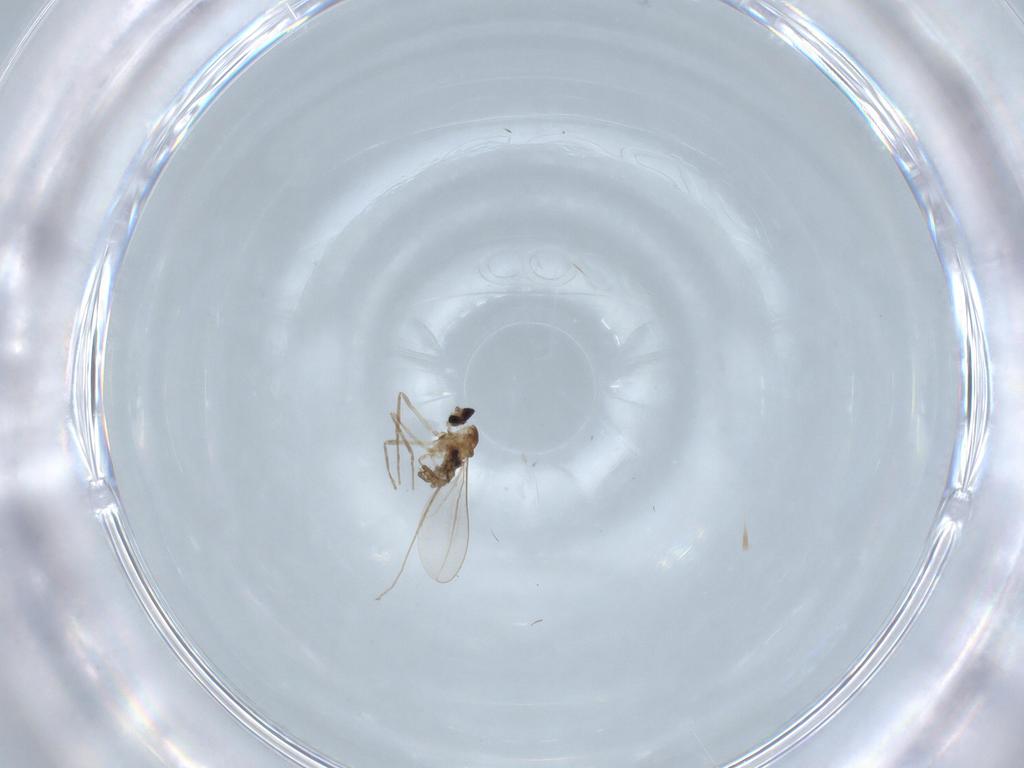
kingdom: Animalia
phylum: Arthropoda
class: Insecta
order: Diptera
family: Cecidomyiidae
